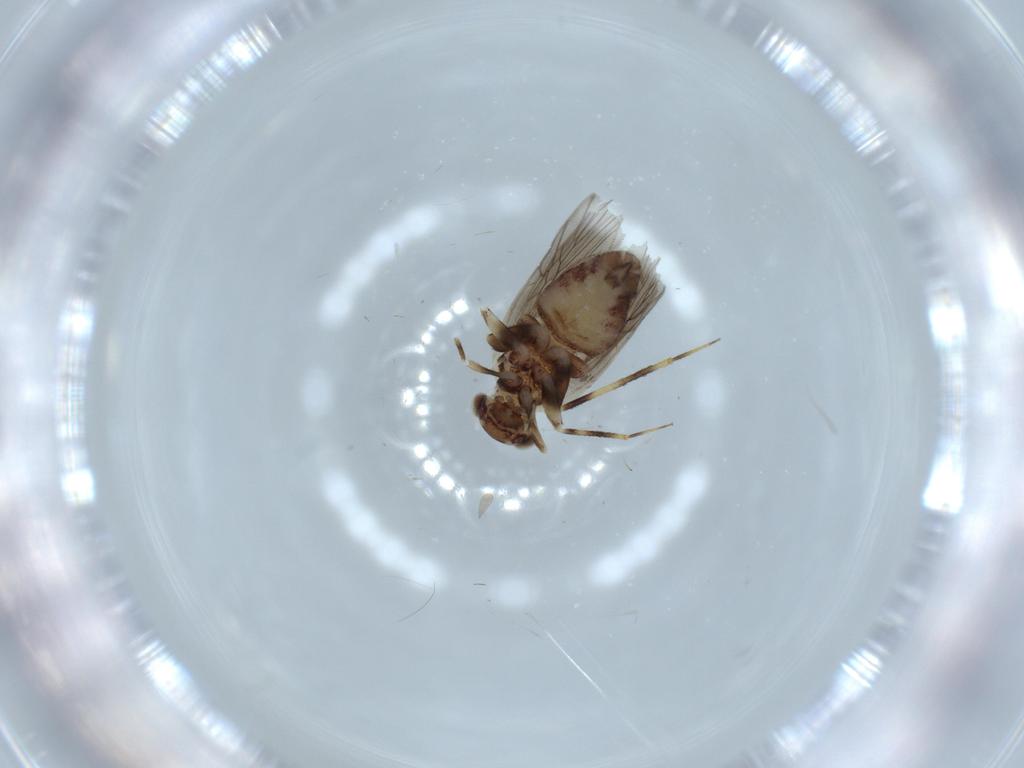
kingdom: Animalia
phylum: Arthropoda
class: Insecta
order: Psocodea
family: Lepidopsocidae
